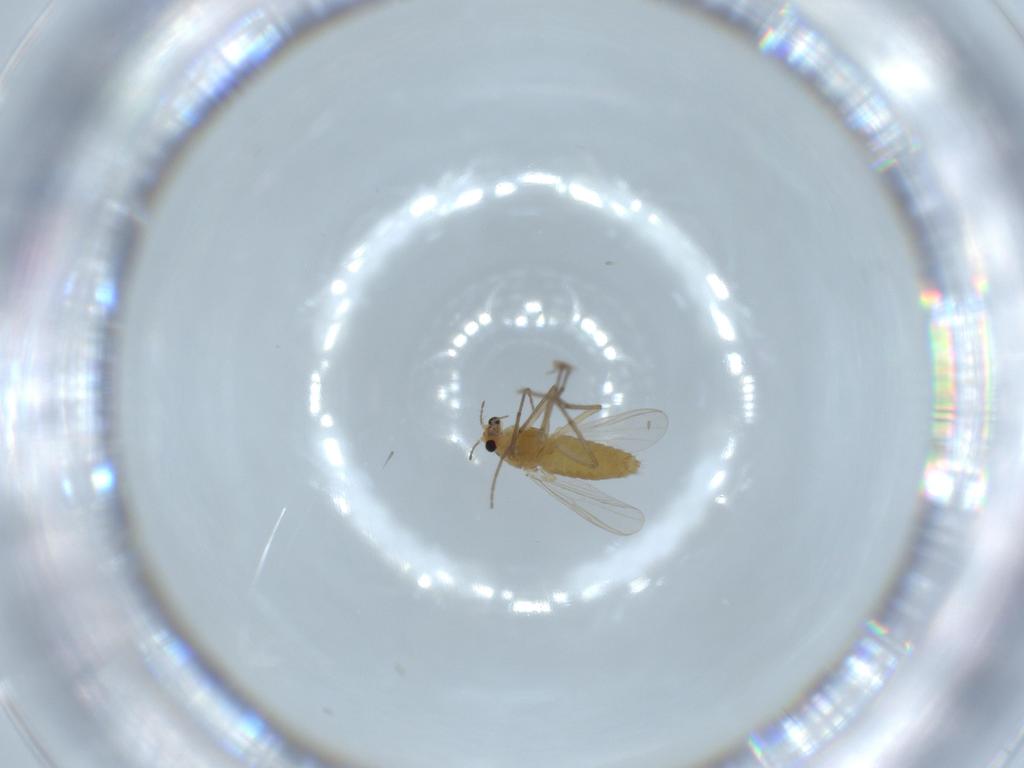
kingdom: Animalia
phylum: Arthropoda
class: Insecta
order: Diptera
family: Chironomidae
